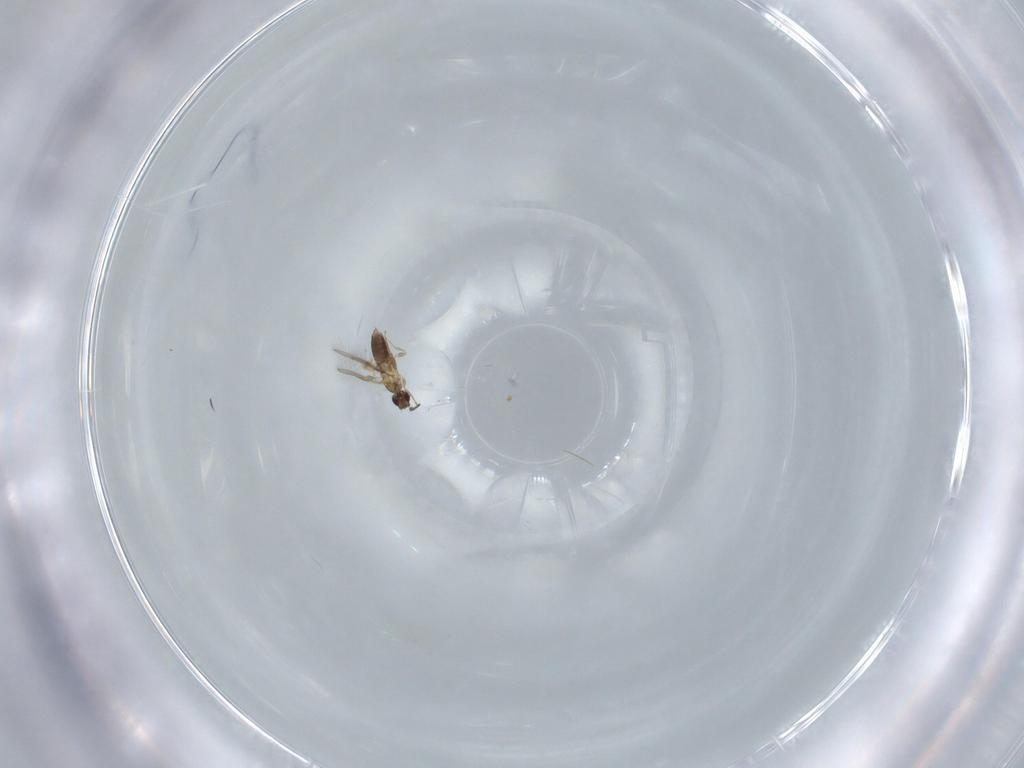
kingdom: Animalia
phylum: Arthropoda
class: Insecta
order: Hymenoptera
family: Mymaridae
